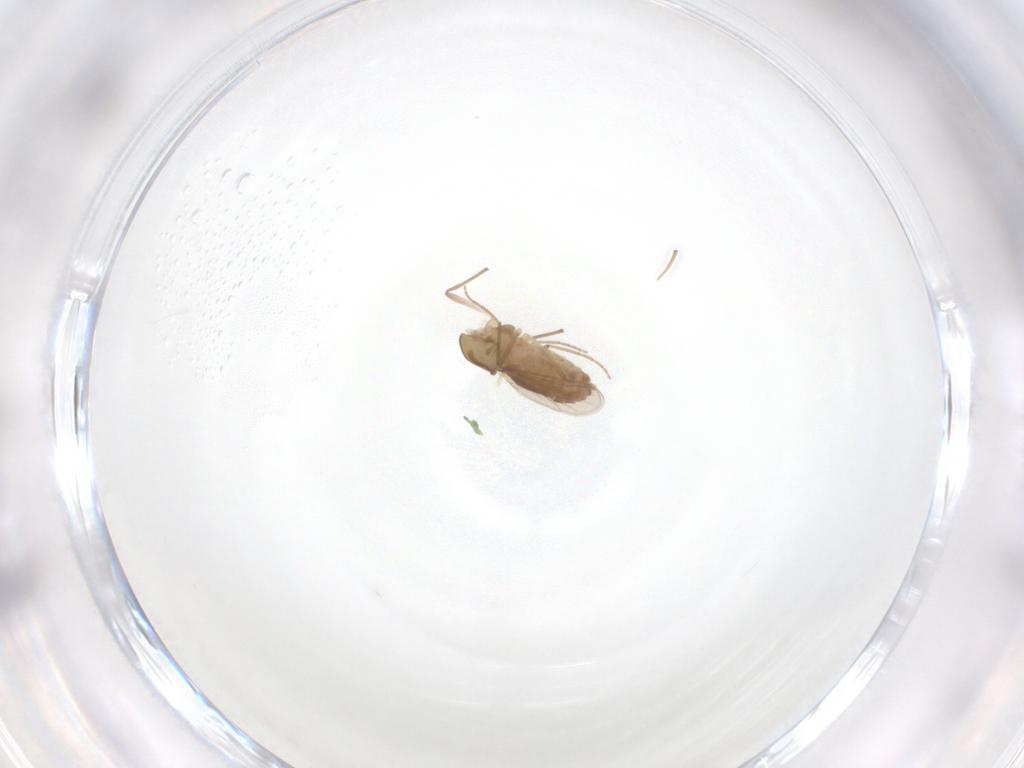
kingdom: Animalia
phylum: Arthropoda
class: Insecta
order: Diptera
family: Chironomidae
